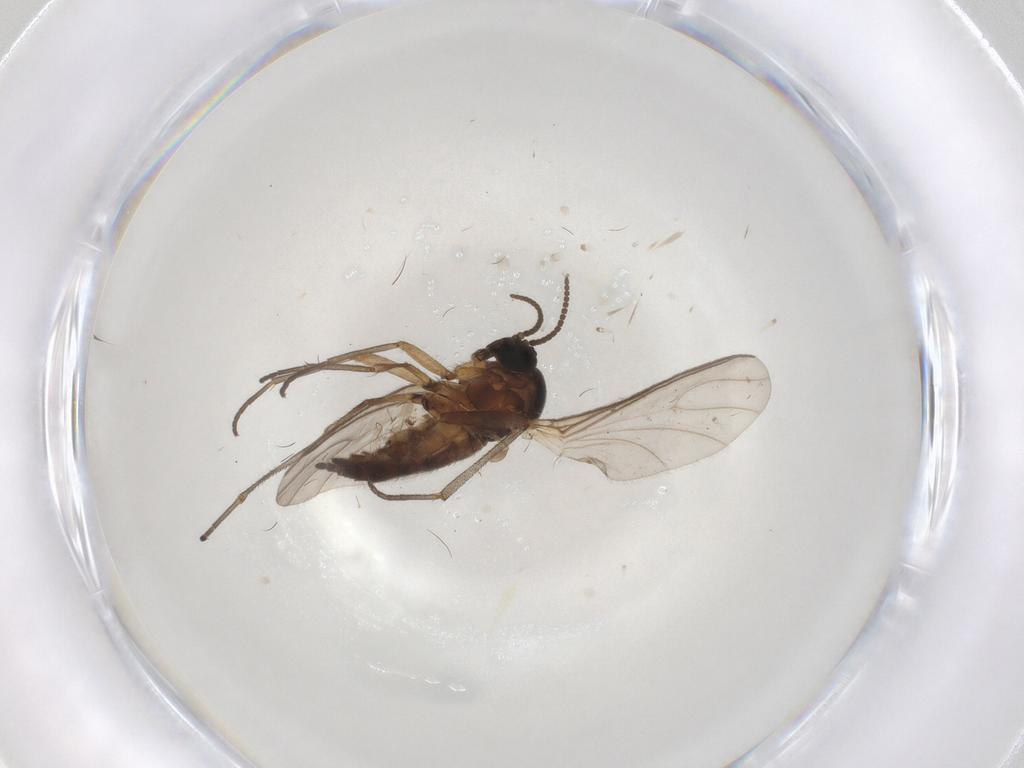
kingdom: Animalia
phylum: Arthropoda
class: Insecta
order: Diptera
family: Sciaridae
